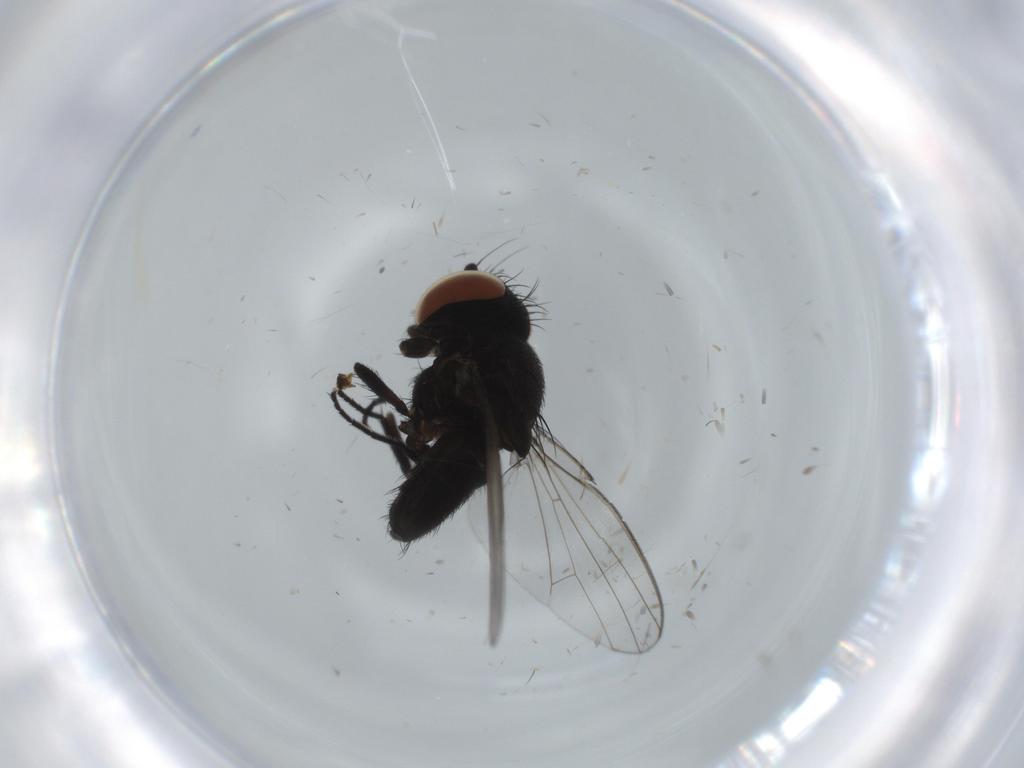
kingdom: Animalia
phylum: Arthropoda
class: Insecta
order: Diptera
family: Milichiidae
